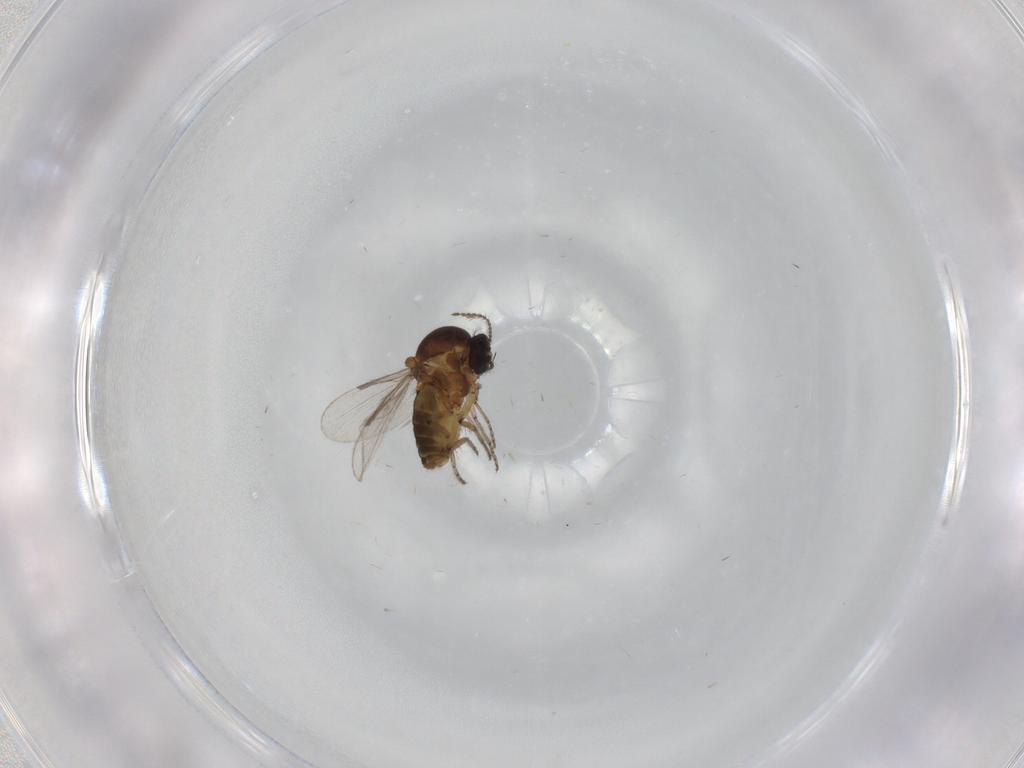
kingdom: Animalia
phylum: Arthropoda
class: Insecta
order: Diptera
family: Ceratopogonidae
